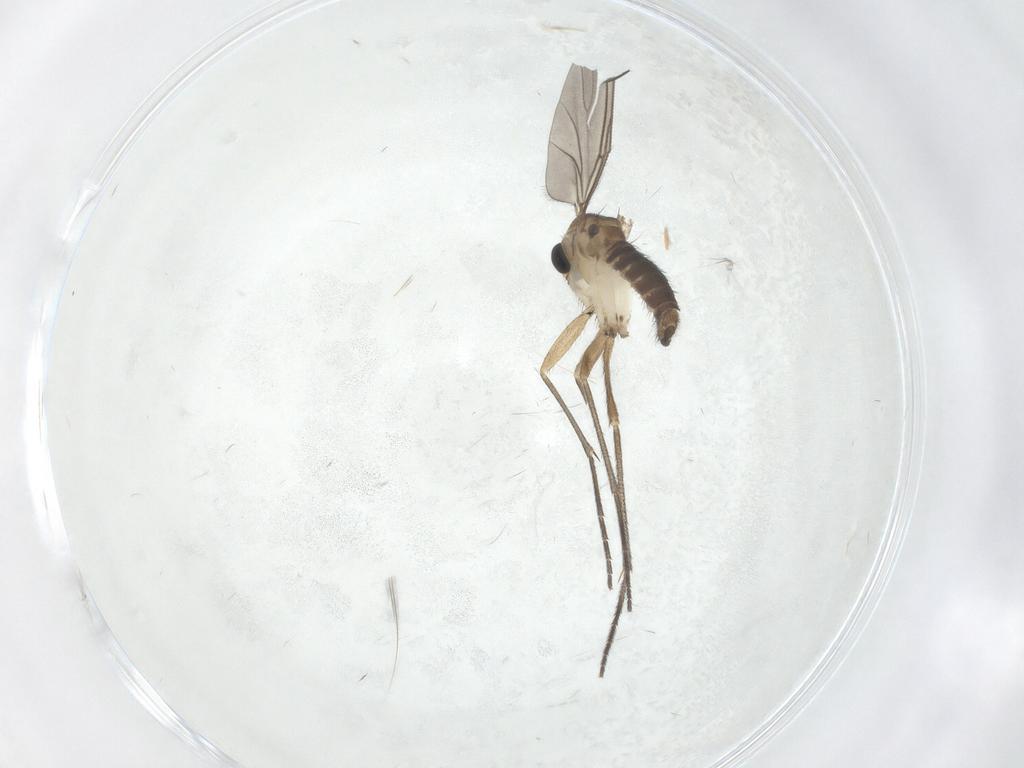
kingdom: Animalia
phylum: Arthropoda
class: Insecta
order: Diptera
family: Sciaridae
